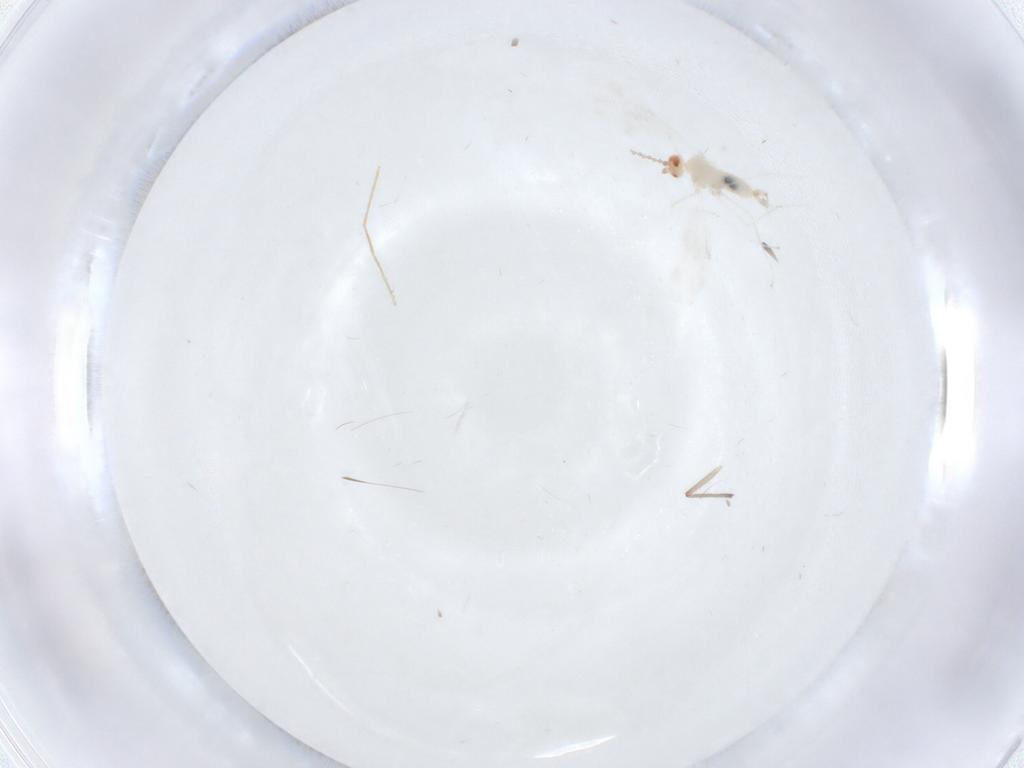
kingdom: Animalia
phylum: Arthropoda
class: Insecta
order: Diptera
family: Cecidomyiidae
